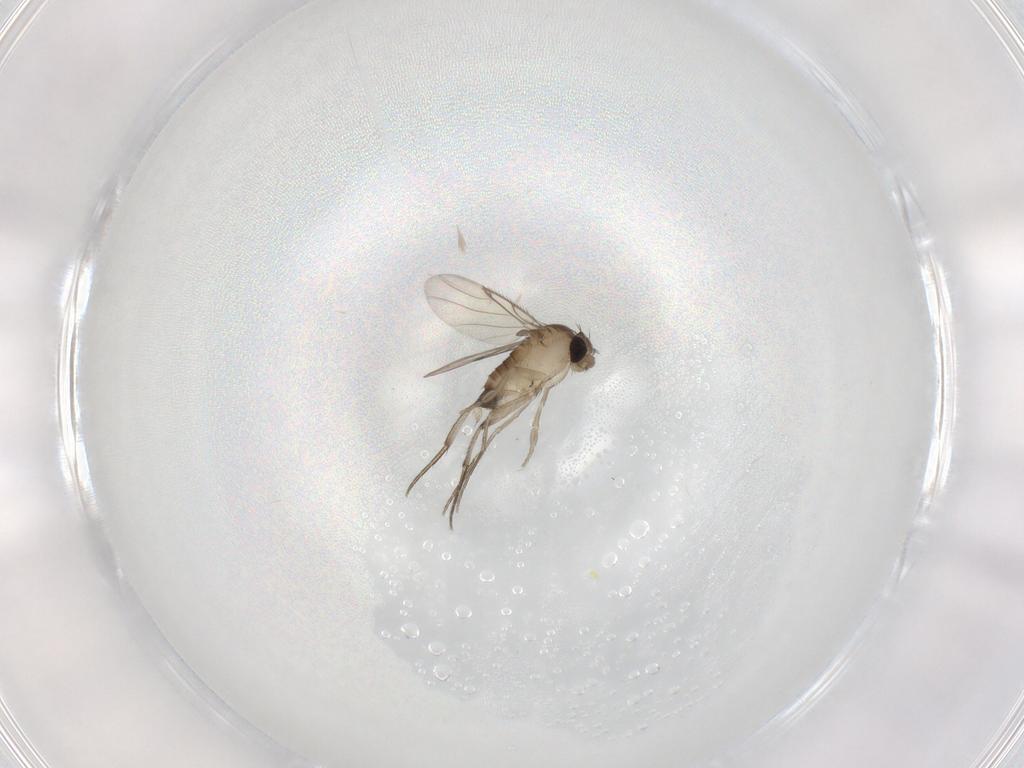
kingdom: Animalia
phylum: Arthropoda
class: Insecta
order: Diptera
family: Phoridae
